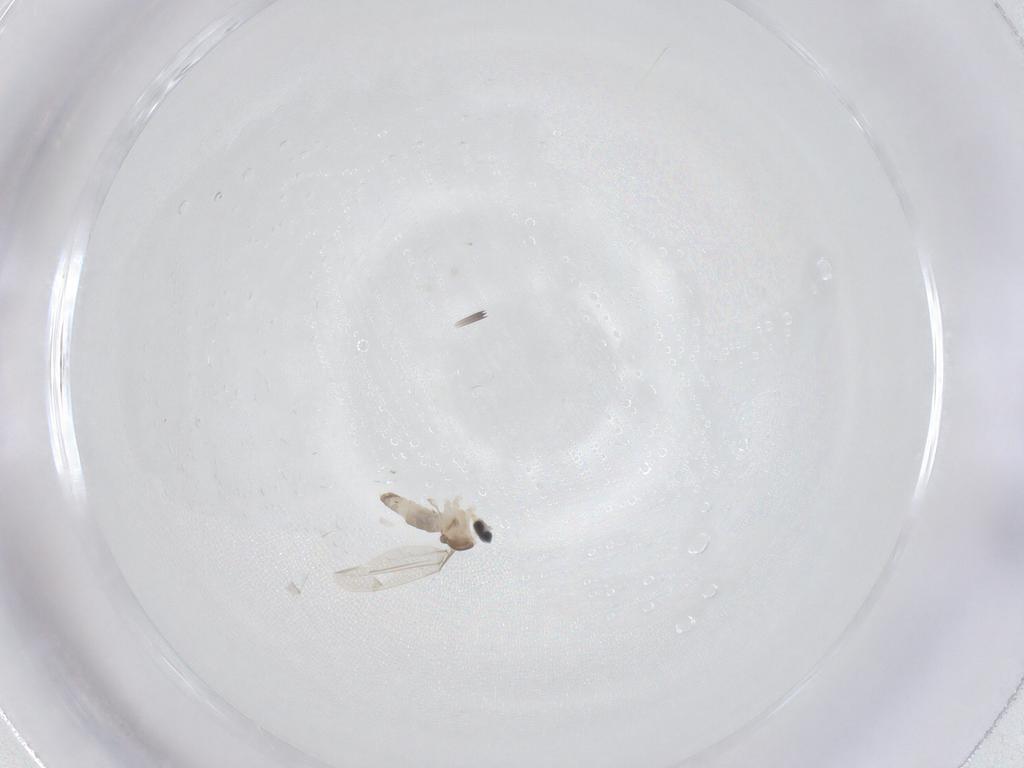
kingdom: Animalia
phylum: Arthropoda
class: Insecta
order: Diptera
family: Cecidomyiidae
